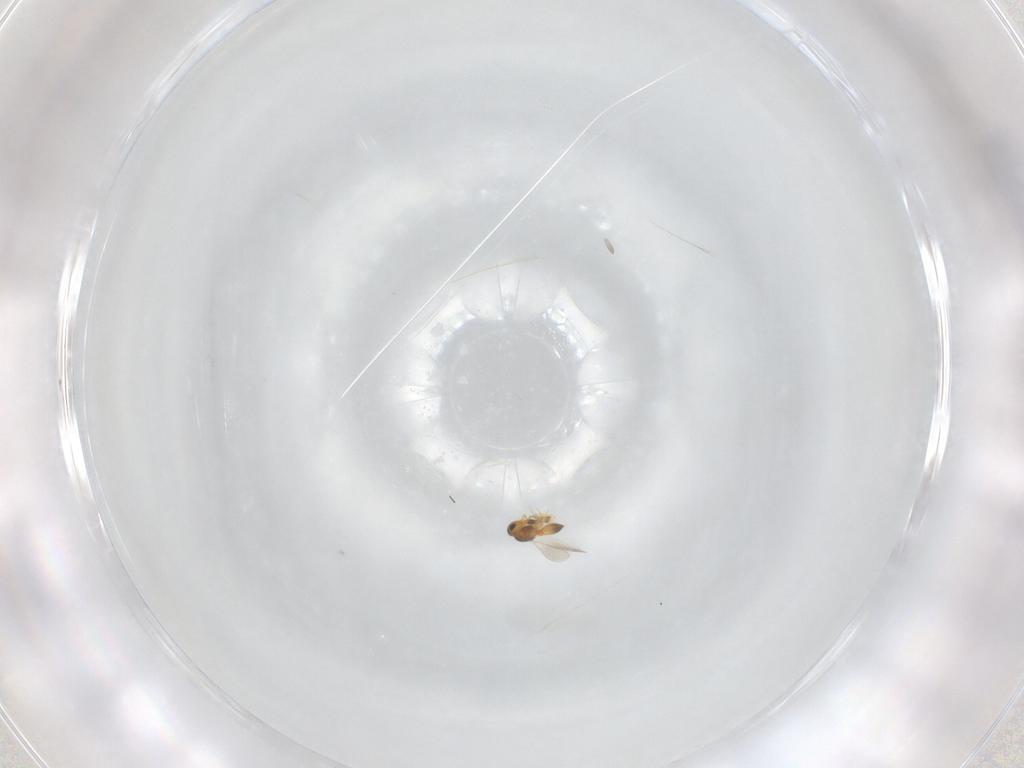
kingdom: Animalia
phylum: Arthropoda
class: Insecta
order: Hymenoptera
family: Platygastridae
